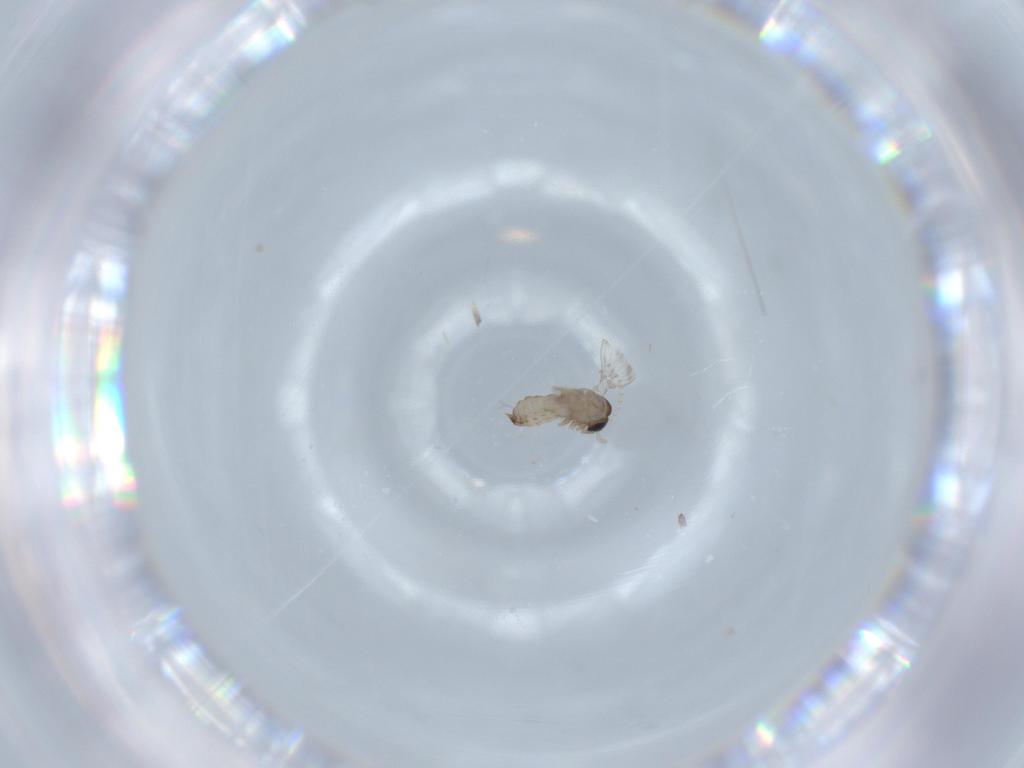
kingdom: Animalia
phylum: Arthropoda
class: Insecta
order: Diptera
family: Psychodidae
